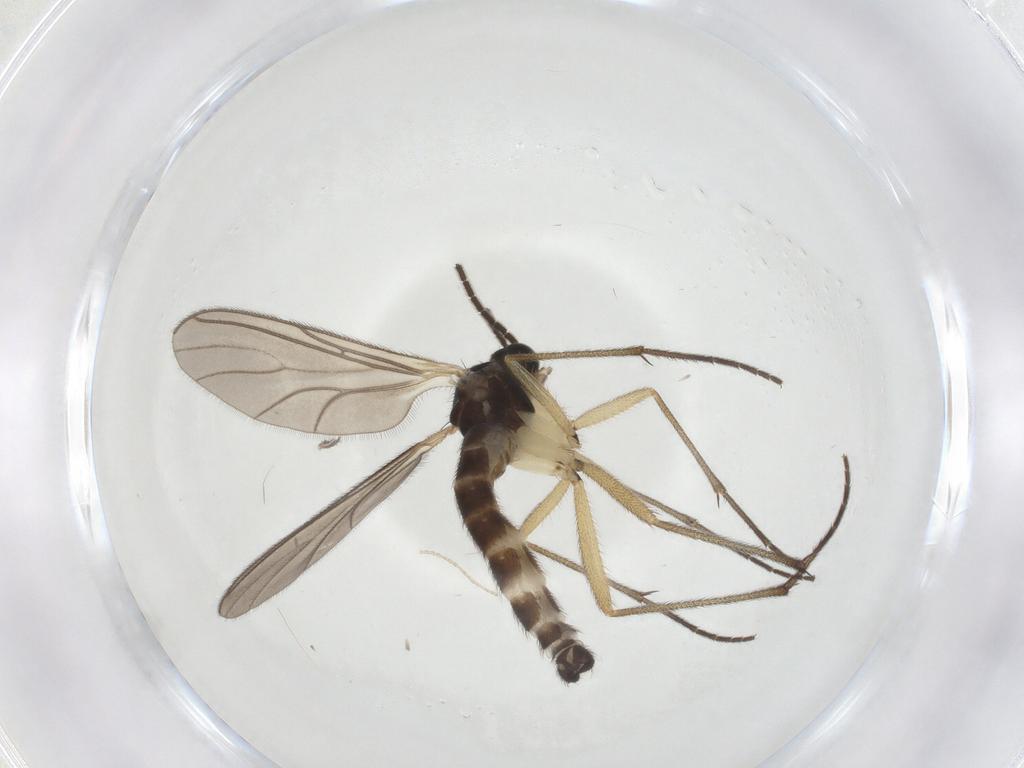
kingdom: Animalia
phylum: Arthropoda
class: Insecta
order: Diptera
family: Sciaridae
